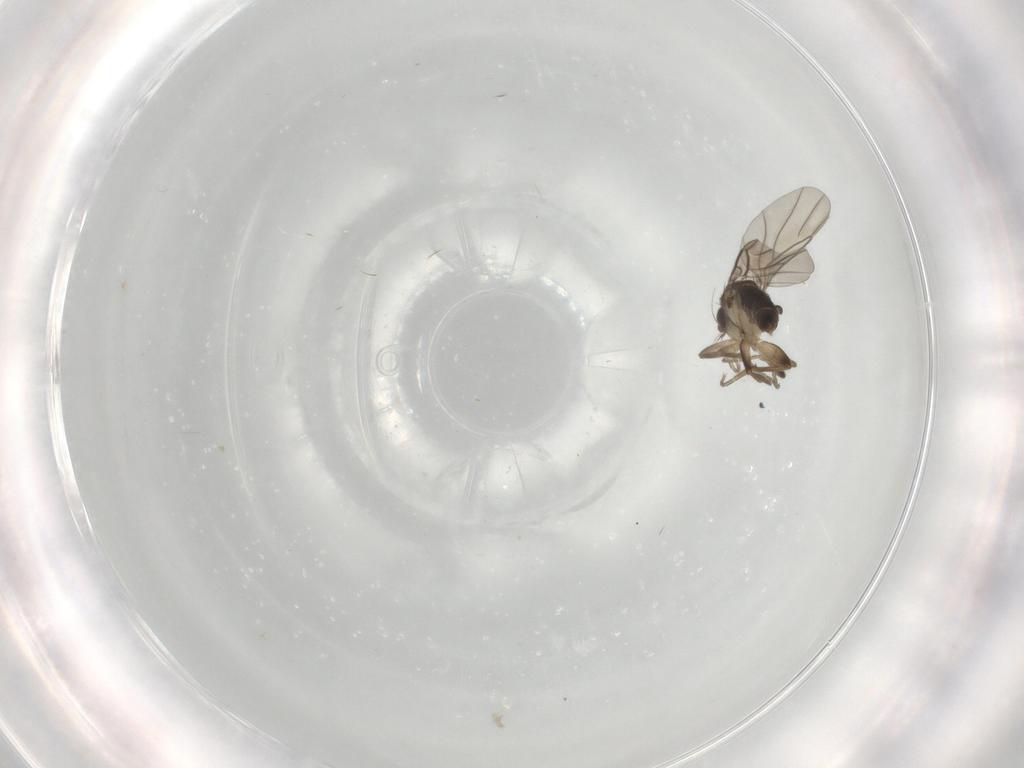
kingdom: Animalia
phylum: Arthropoda
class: Insecta
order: Diptera
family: Phoridae
